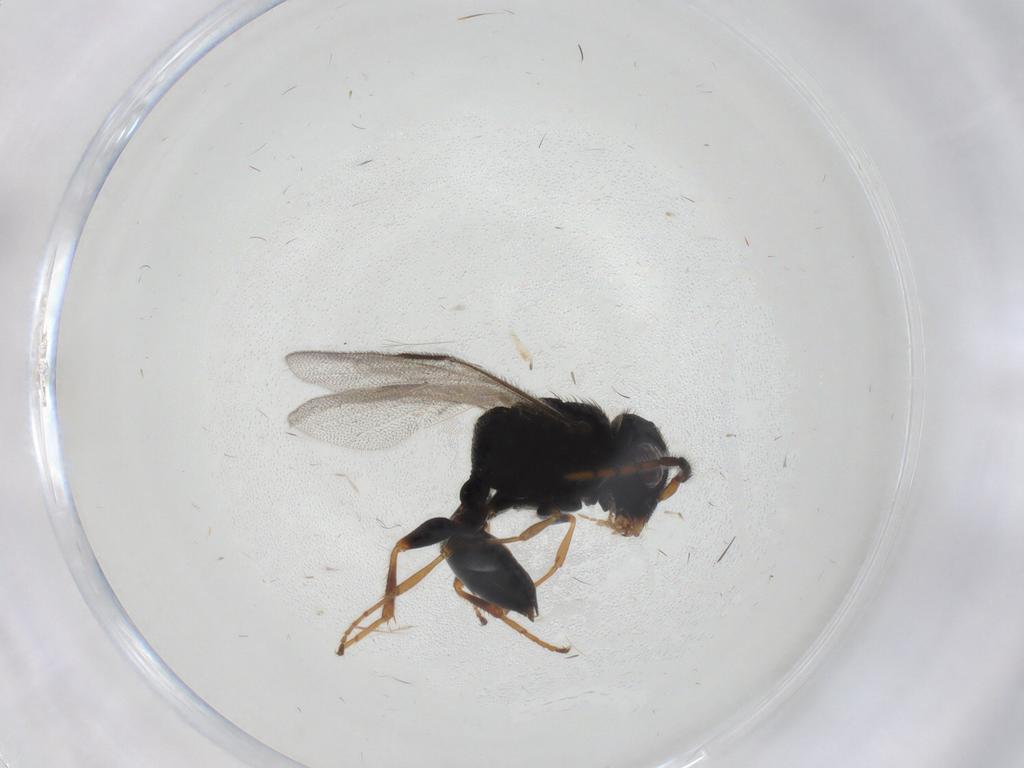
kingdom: Animalia
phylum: Arthropoda
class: Insecta
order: Hymenoptera
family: Dryinidae
